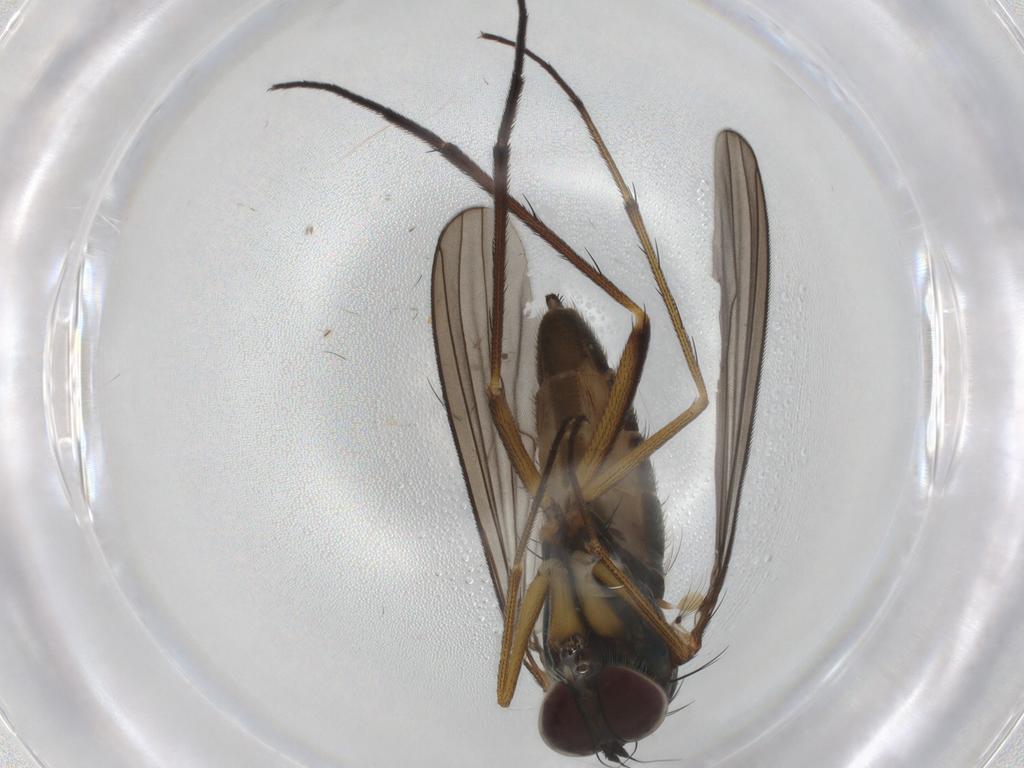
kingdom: Animalia
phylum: Arthropoda
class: Insecta
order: Diptera
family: Dolichopodidae
